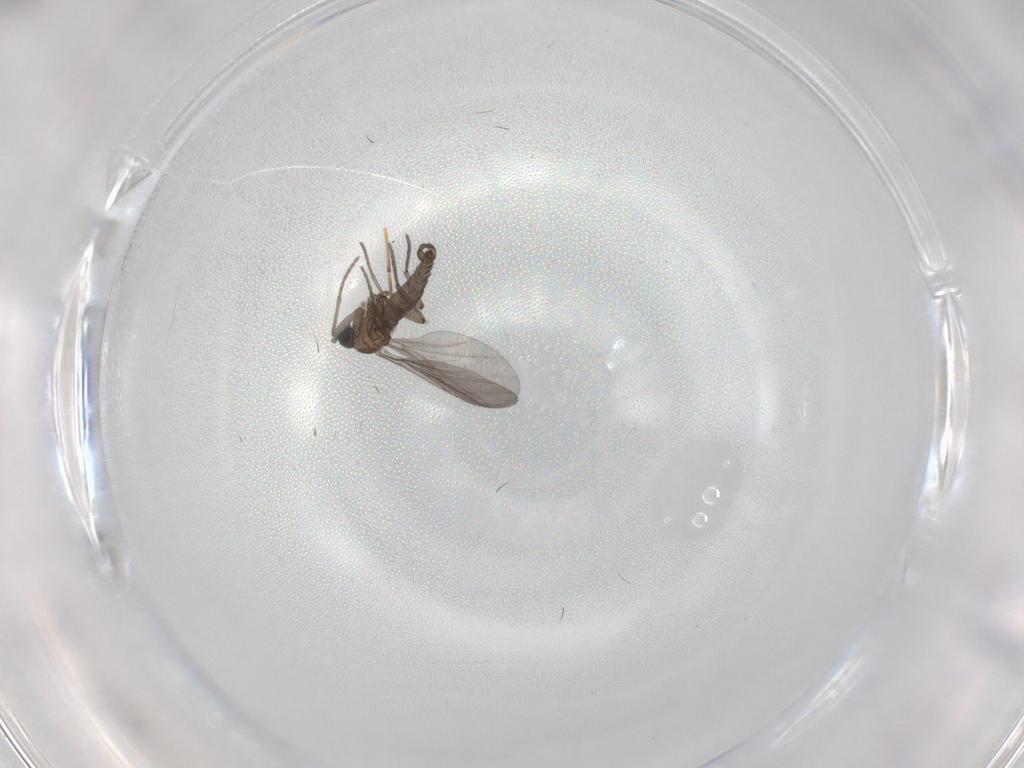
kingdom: Animalia
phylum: Arthropoda
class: Insecta
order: Diptera
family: Sciaridae
